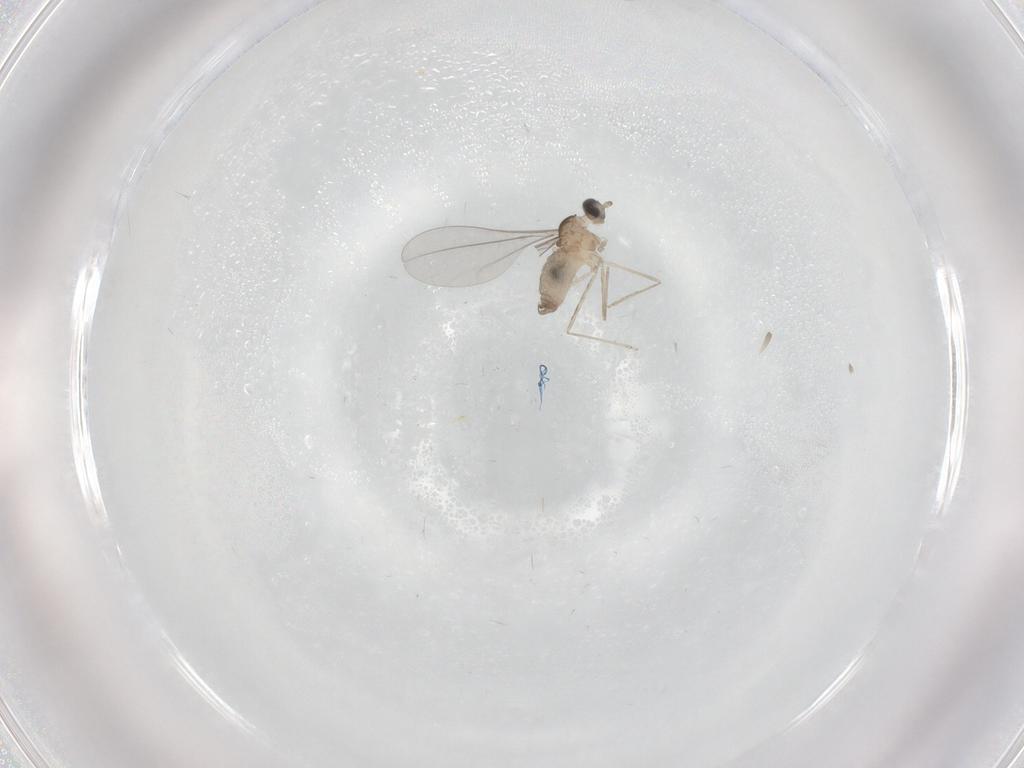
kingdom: Animalia
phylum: Arthropoda
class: Insecta
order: Diptera
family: Cecidomyiidae
